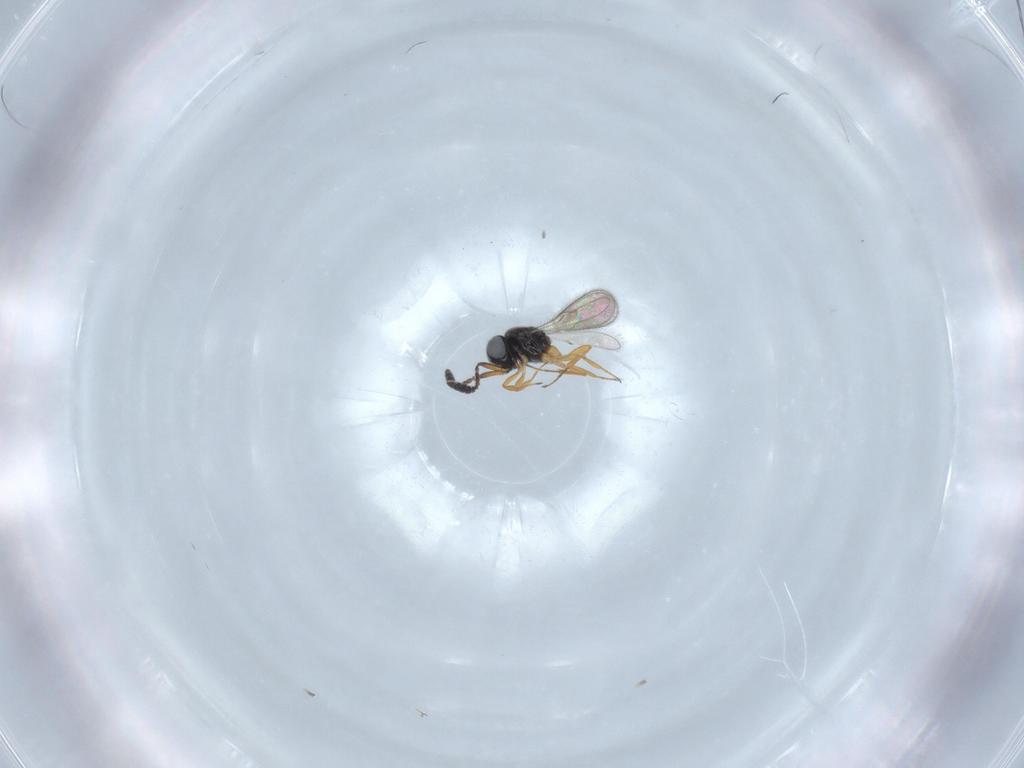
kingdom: Animalia
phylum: Arthropoda
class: Insecta
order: Hymenoptera
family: Scelionidae
